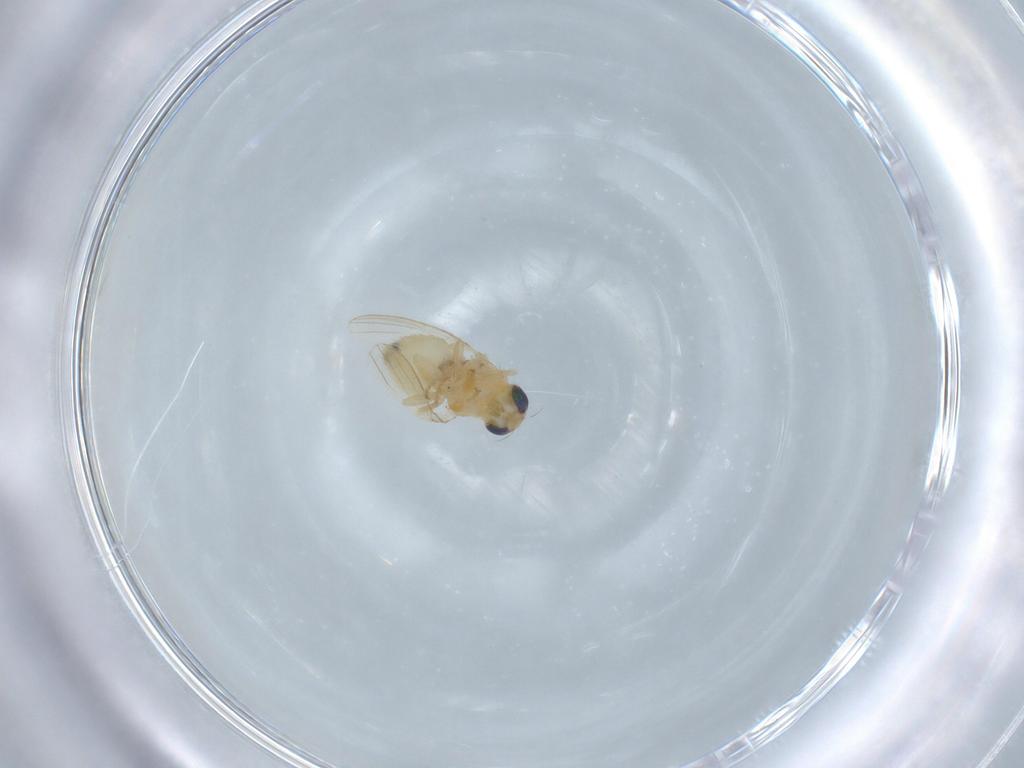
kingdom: Animalia
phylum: Arthropoda
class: Insecta
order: Diptera
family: Chyromyidae
